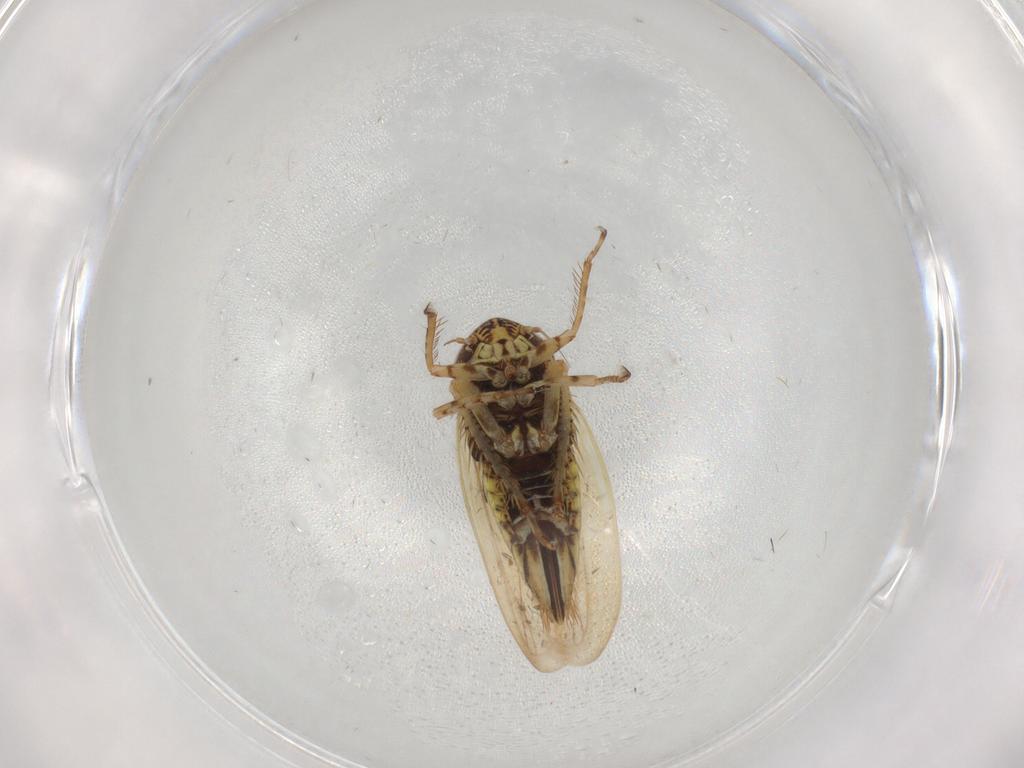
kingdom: Animalia
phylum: Arthropoda
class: Insecta
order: Hemiptera
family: Cicadellidae
